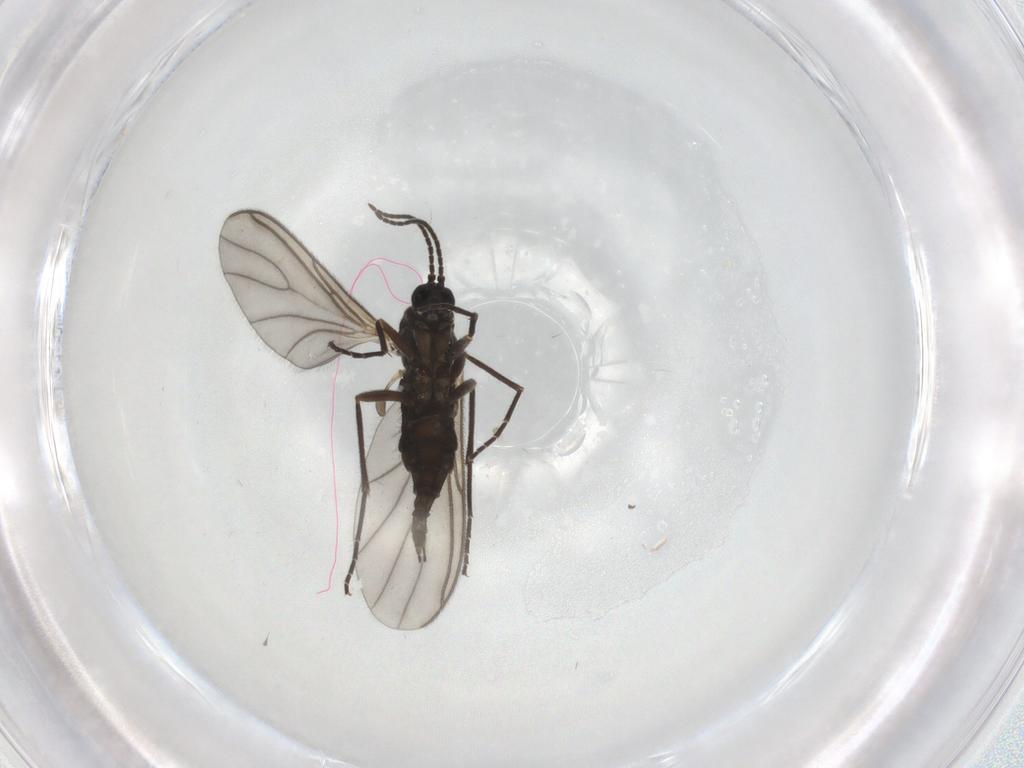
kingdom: Animalia
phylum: Arthropoda
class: Insecta
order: Diptera
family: Sciaridae
